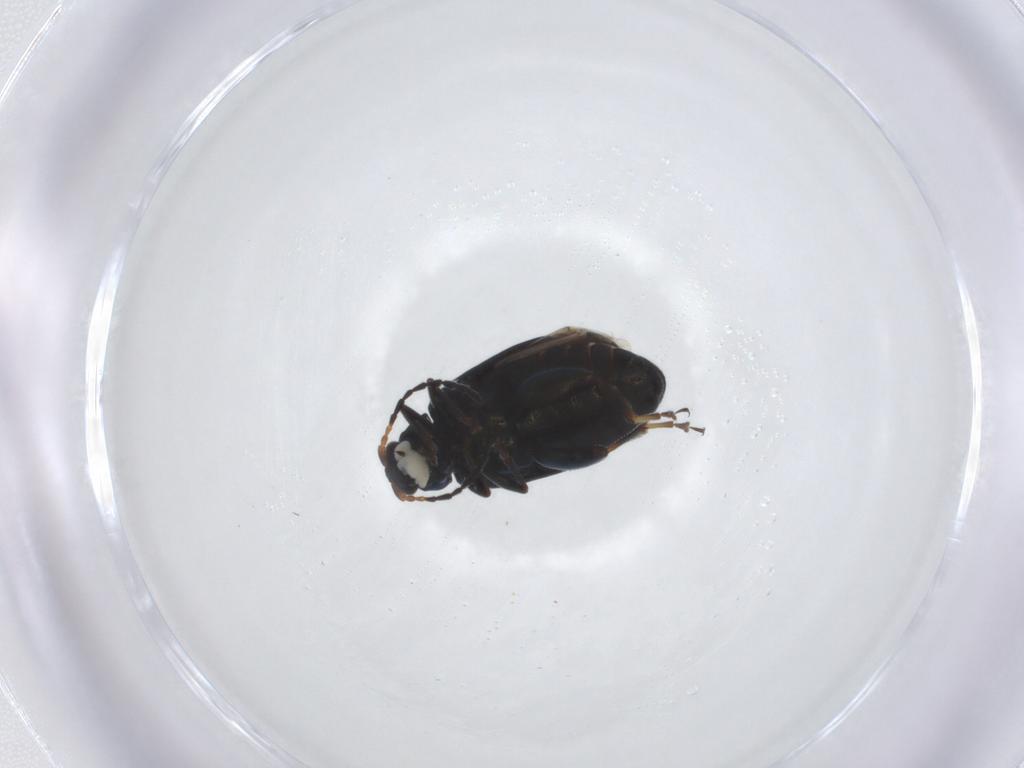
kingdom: Animalia
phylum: Arthropoda
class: Insecta
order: Coleoptera
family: Chrysomelidae
